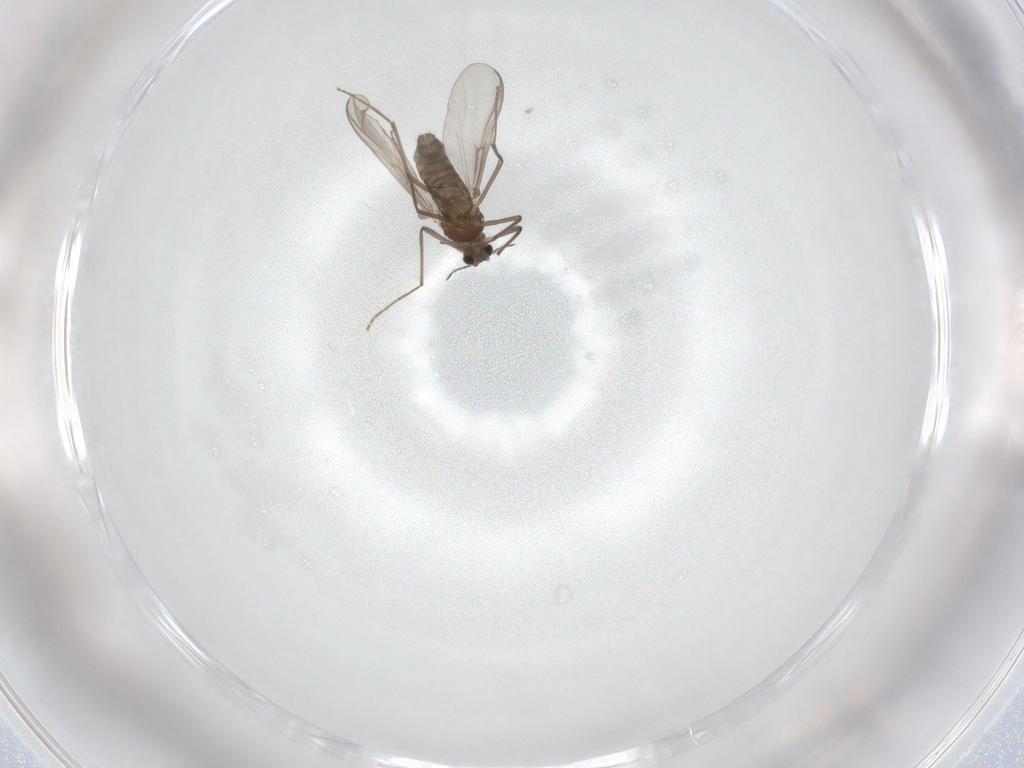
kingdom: Animalia
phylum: Arthropoda
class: Insecta
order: Diptera
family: Chironomidae
